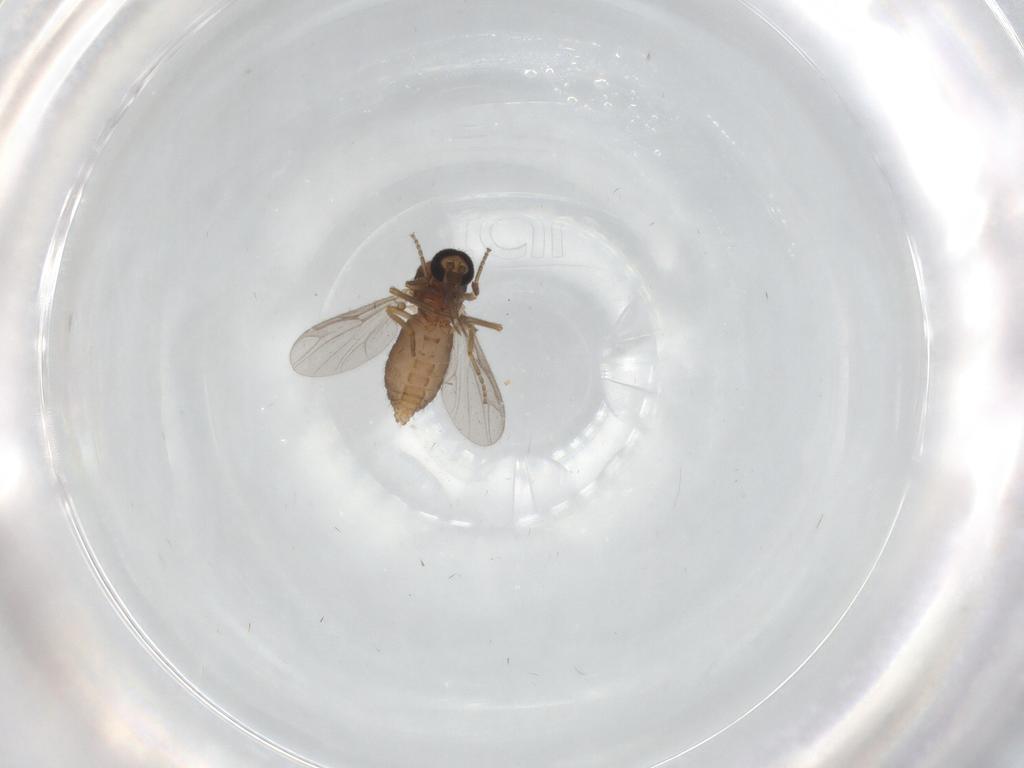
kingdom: Animalia
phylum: Arthropoda
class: Insecta
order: Diptera
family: Ceratopogonidae
